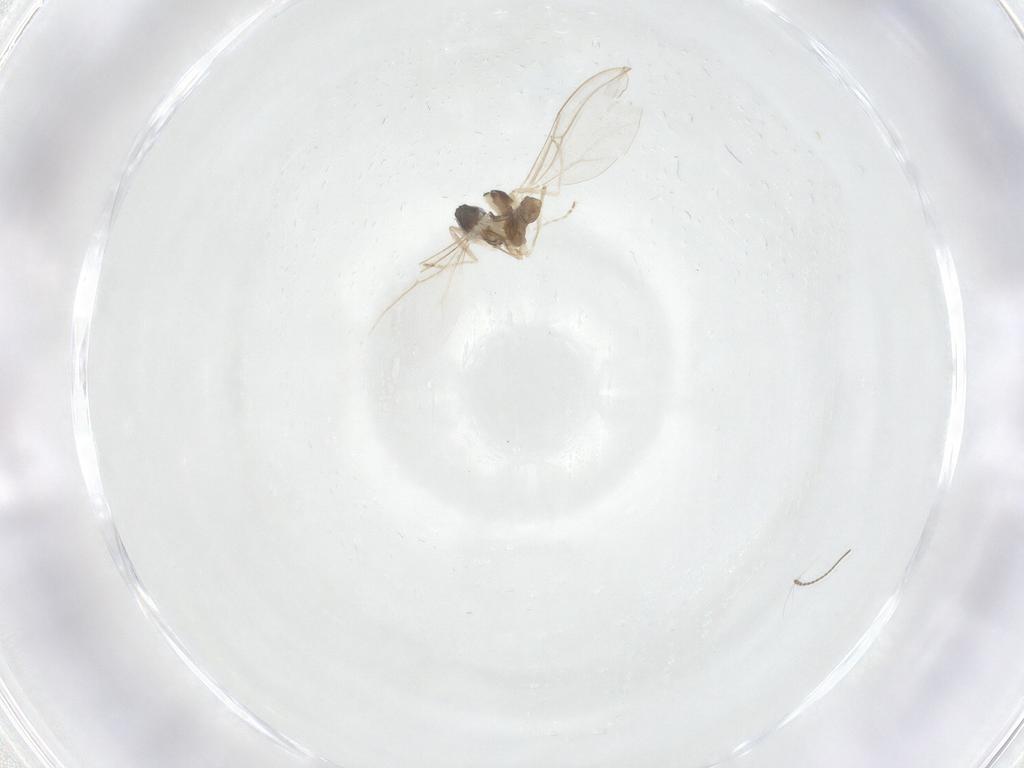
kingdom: Animalia
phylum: Arthropoda
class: Insecta
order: Diptera
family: Cecidomyiidae
